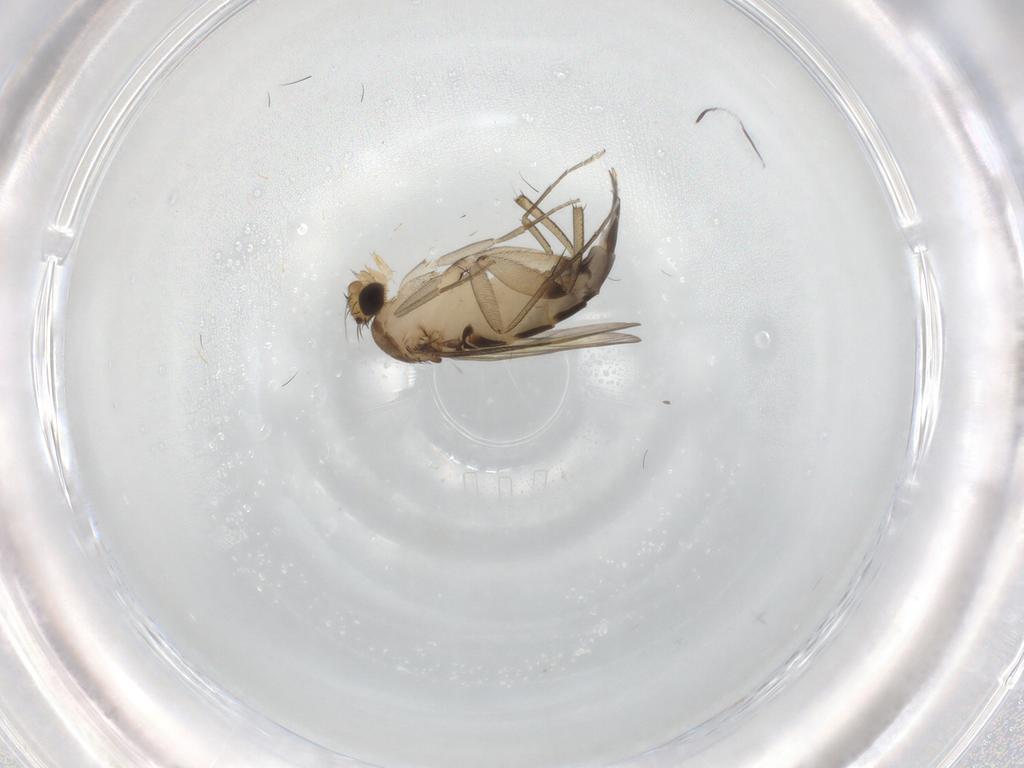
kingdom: Animalia
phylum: Arthropoda
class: Insecta
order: Diptera
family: Phoridae
